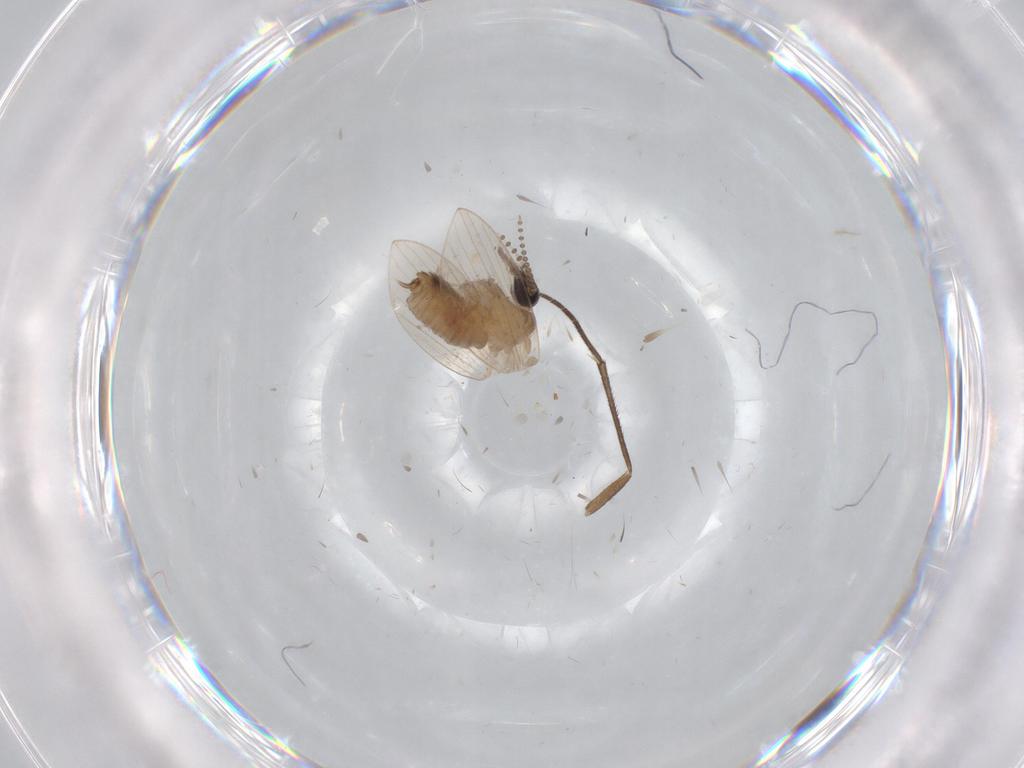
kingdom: Animalia
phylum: Arthropoda
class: Insecta
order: Diptera
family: Psychodidae
